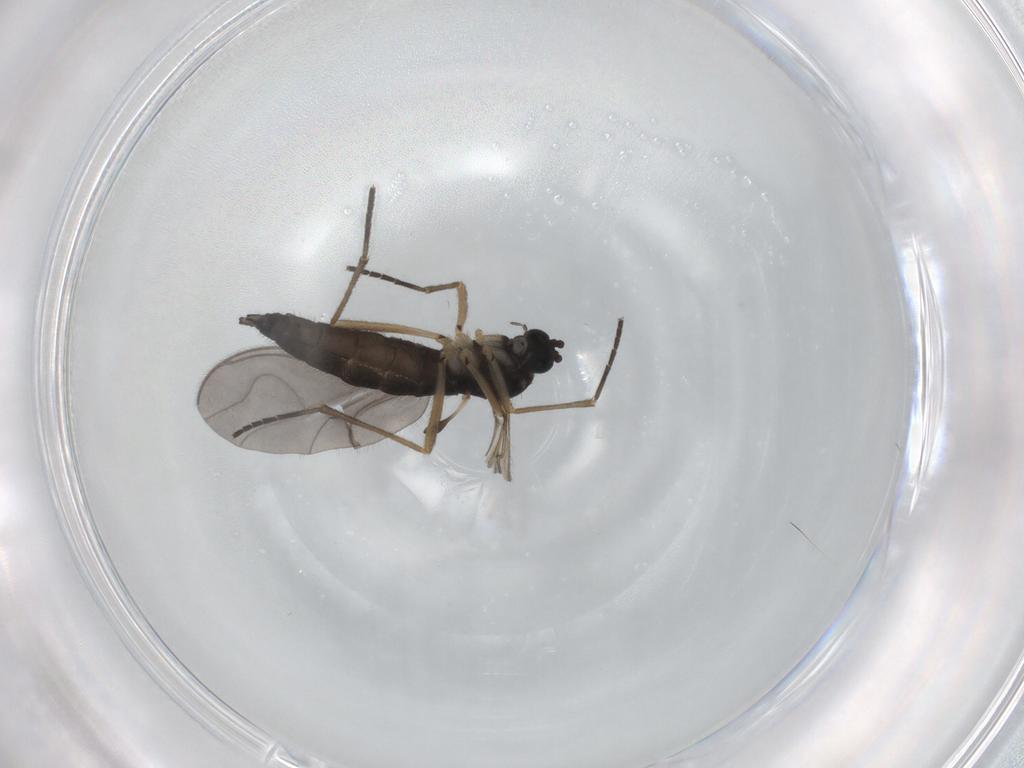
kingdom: Animalia
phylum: Arthropoda
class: Insecta
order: Diptera
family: Sciaridae
